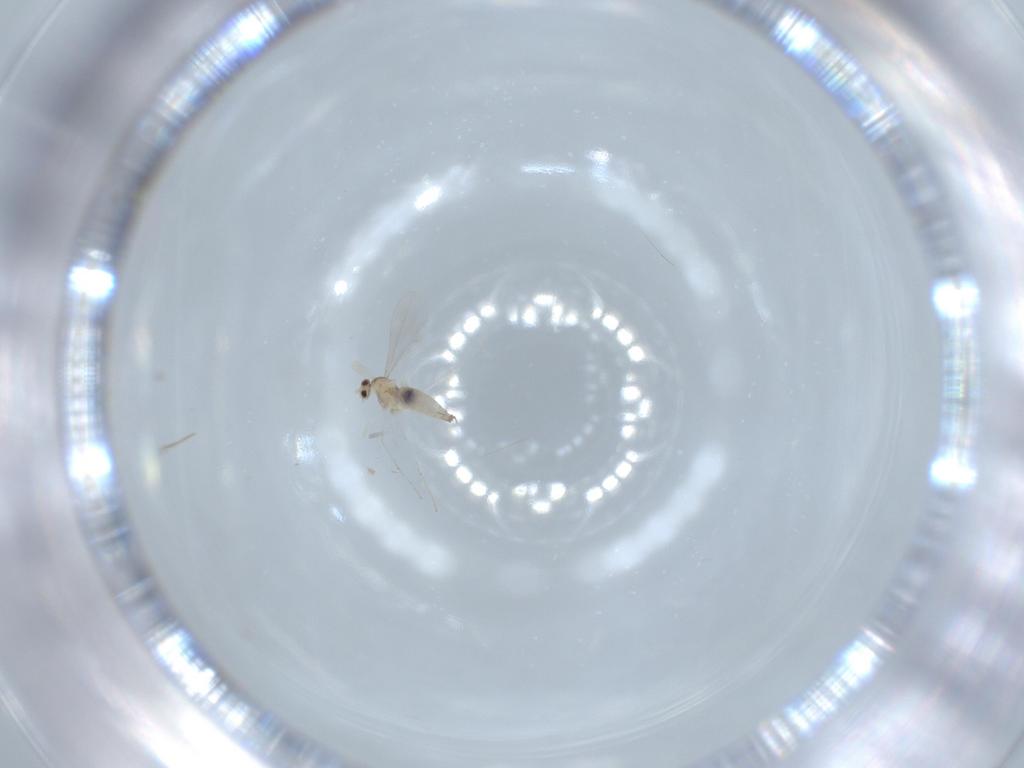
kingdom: Animalia
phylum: Arthropoda
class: Insecta
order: Diptera
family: Cecidomyiidae
